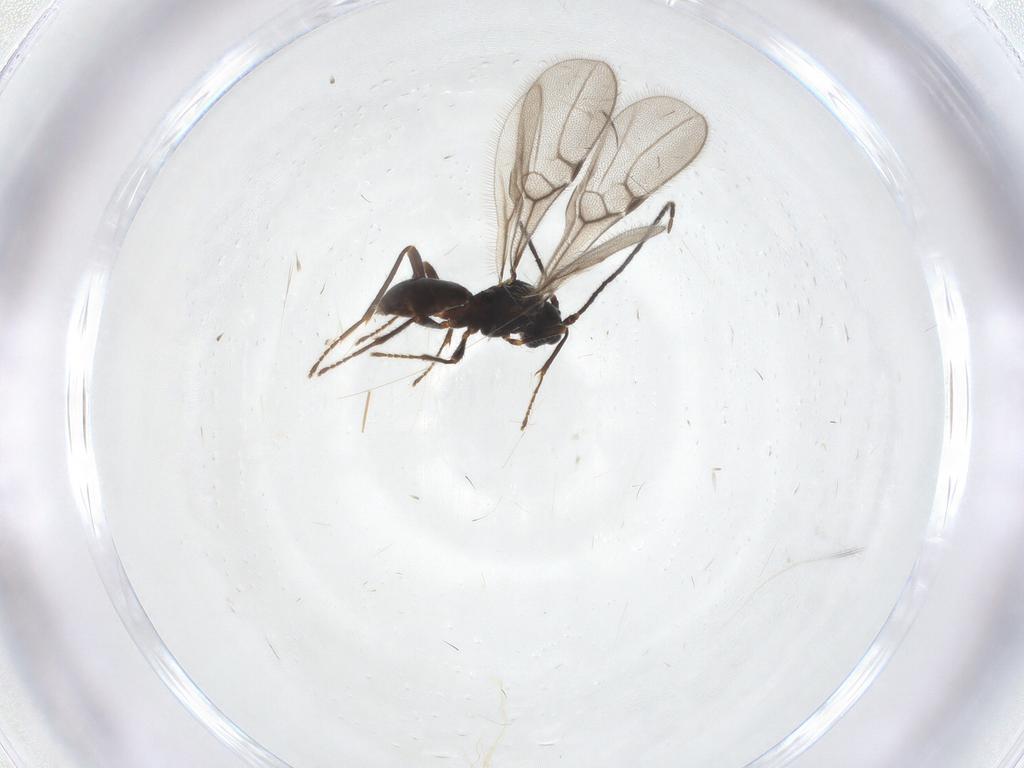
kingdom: Animalia
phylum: Arthropoda
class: Insecta
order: Hymenoptera
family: Braconidae
